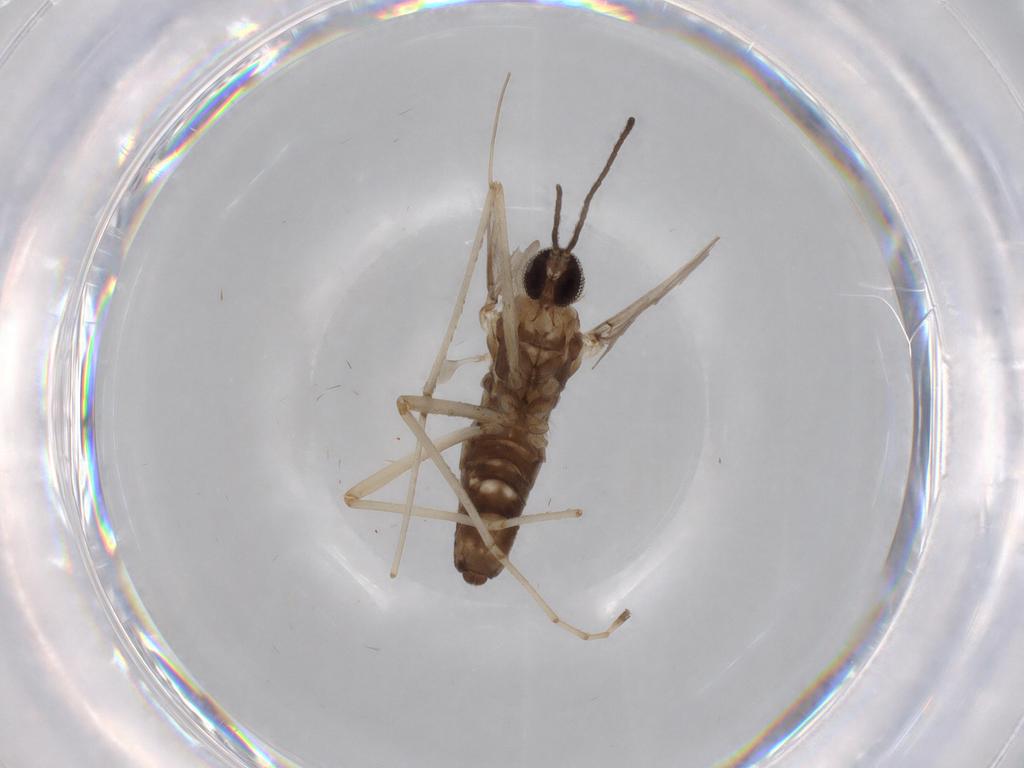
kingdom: Animalia
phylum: Arthropoda
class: Insecta
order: Diptera
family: Cecidomyiidae
